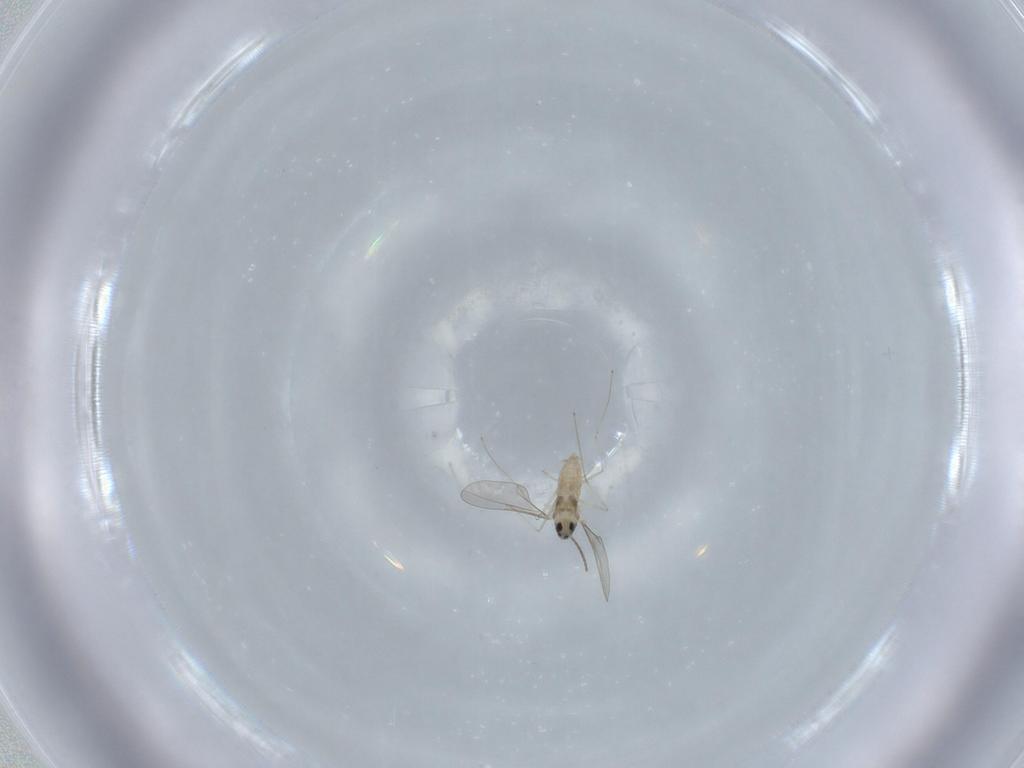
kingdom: Animalia
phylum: Arthropoda
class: Insecta
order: Diptera
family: Cecidomyiidae
